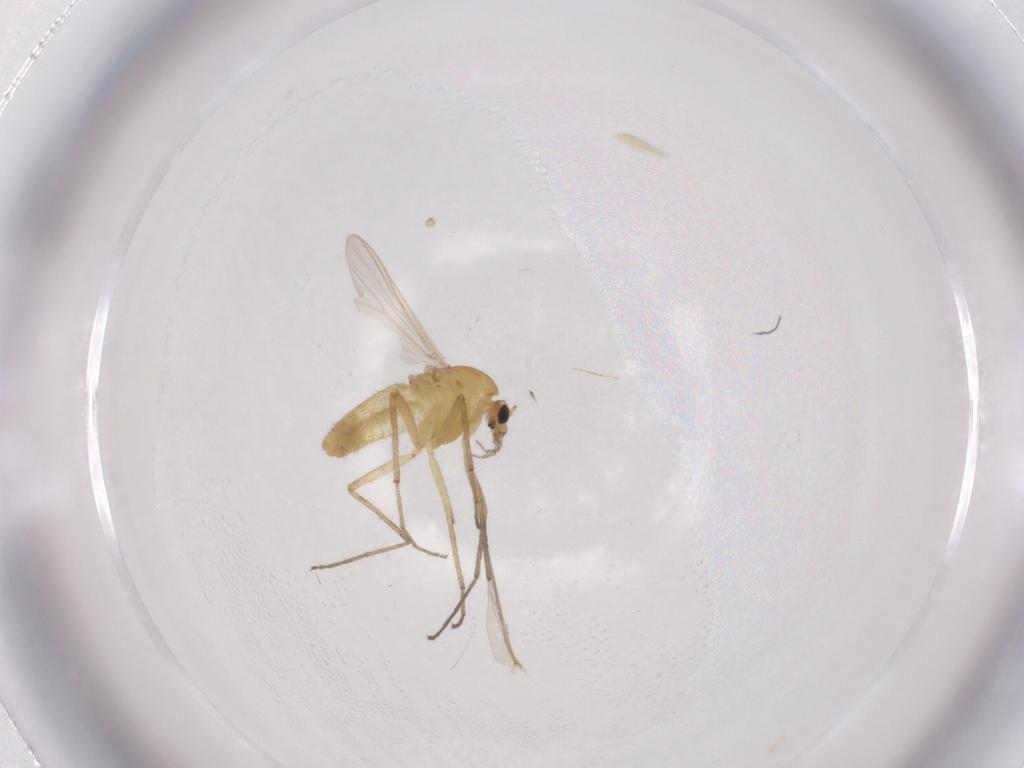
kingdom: Animalia
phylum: Arthropoda
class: Insecta
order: Diptera
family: Chironomidae
